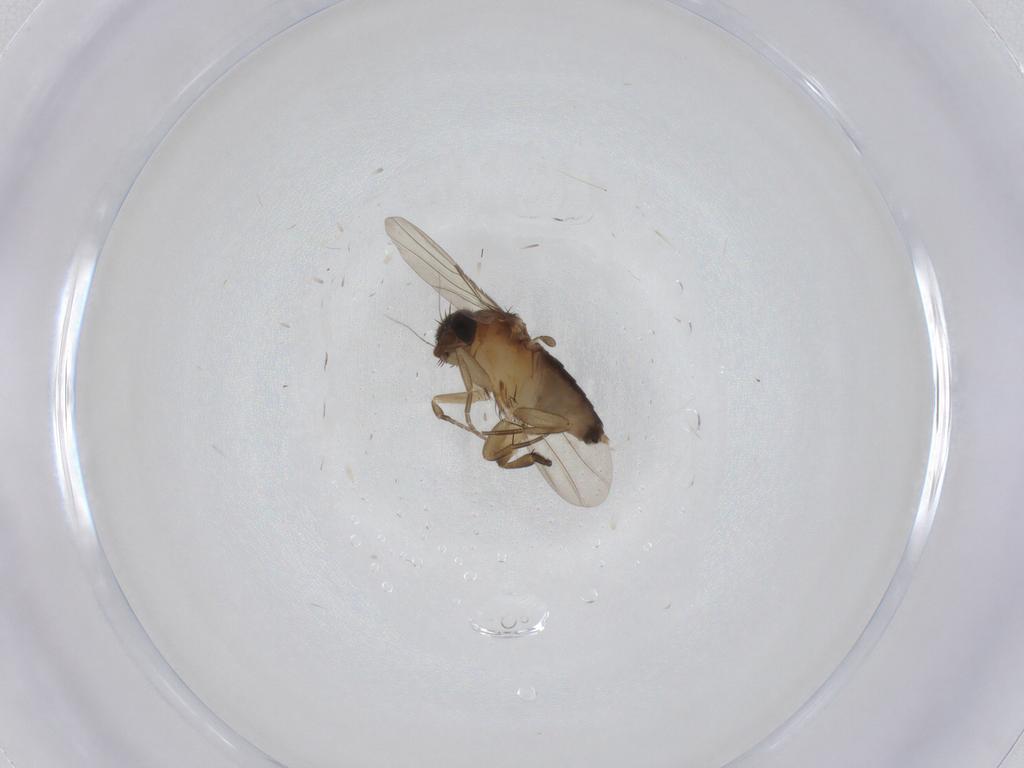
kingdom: Animalia
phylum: Arthropoda
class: Insecta
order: Diptera
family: Phoridae
